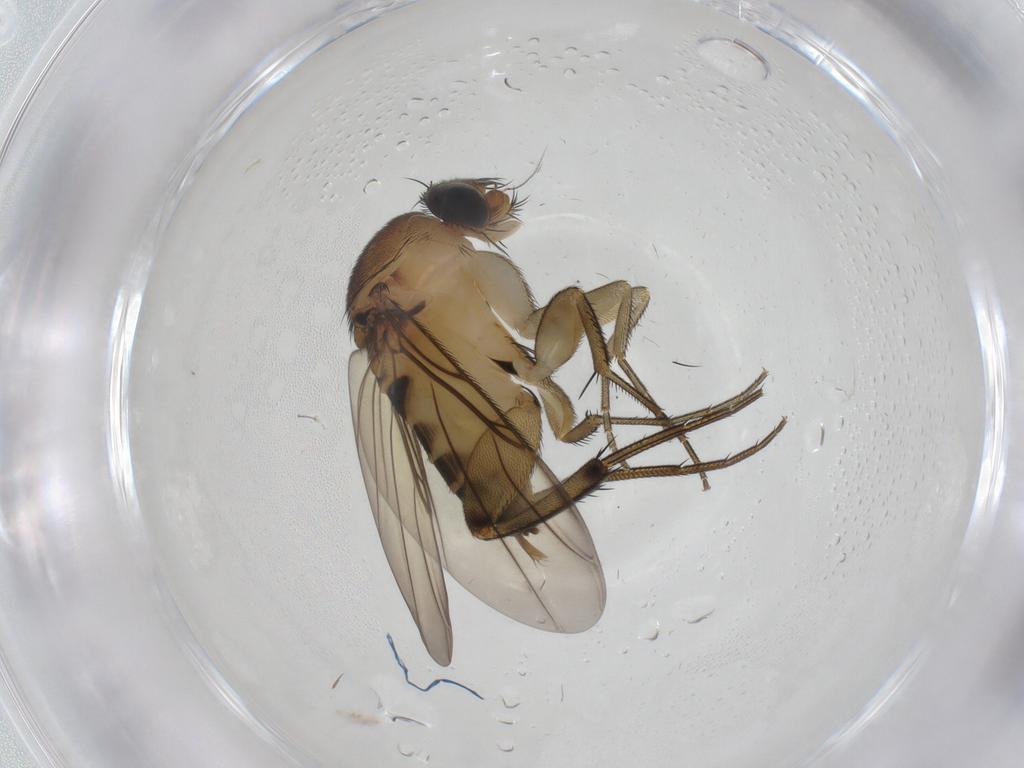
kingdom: Animalia
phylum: Arthropoda
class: Insecta
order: Diptera
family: Phoridae
